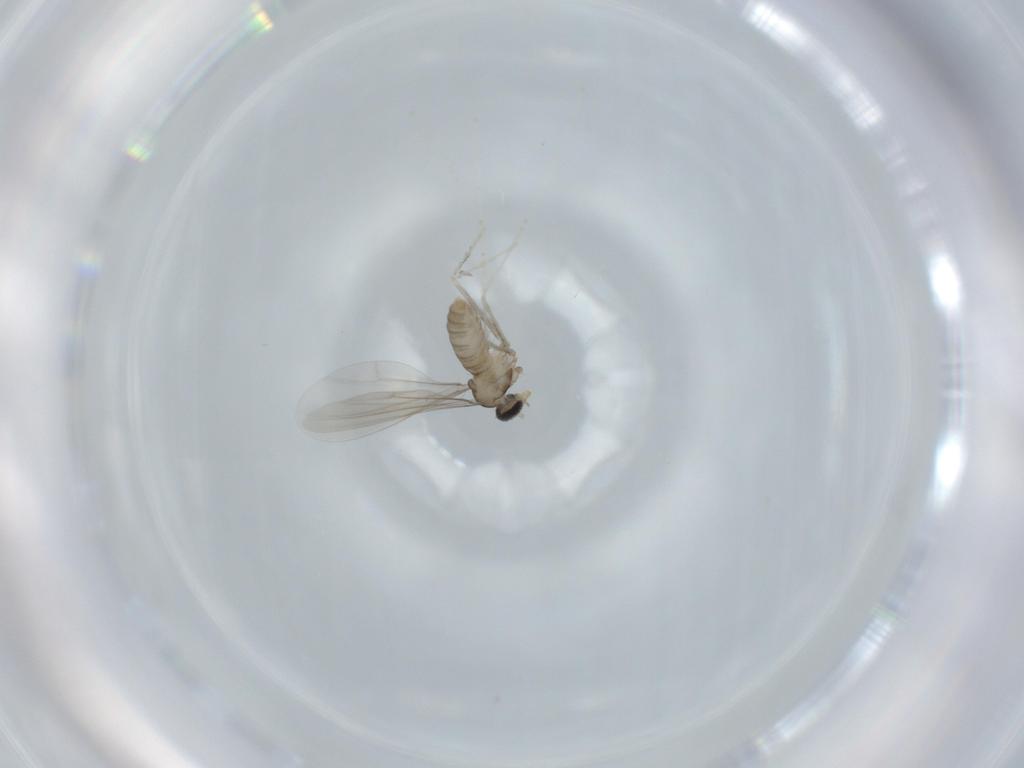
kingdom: Animalia
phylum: Arthropoda
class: Insecta
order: Diptera
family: Cecidomyiidae
